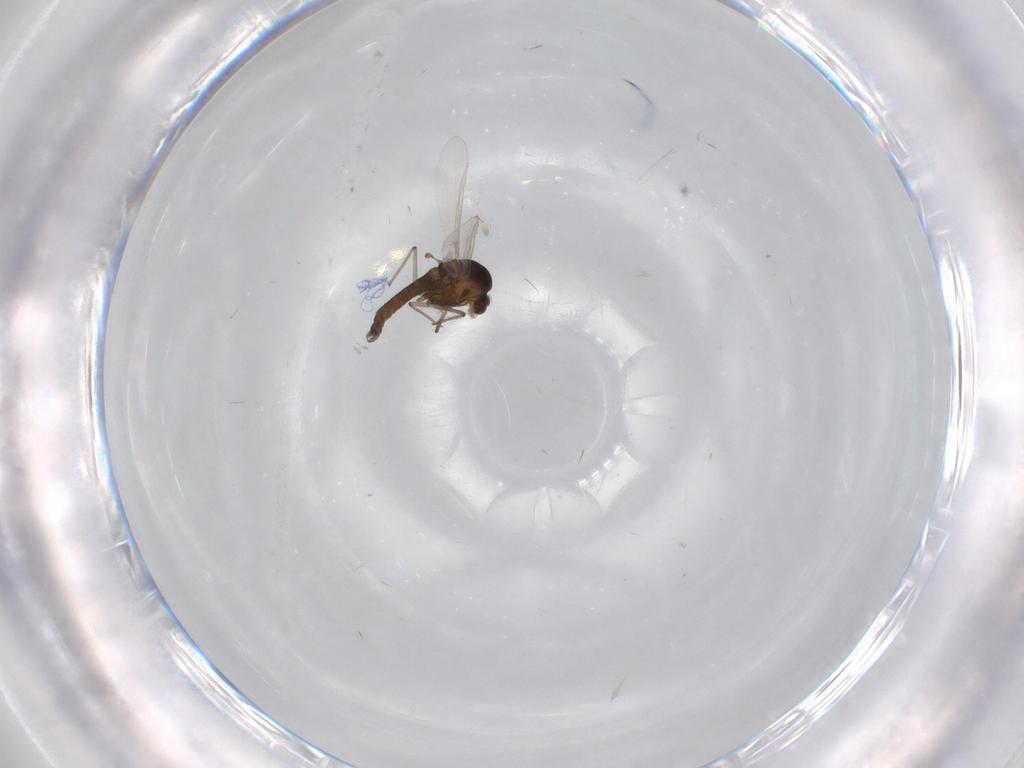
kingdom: Animalia
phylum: Arthropoda
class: Insecta
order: Diptera
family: Chironomidae
